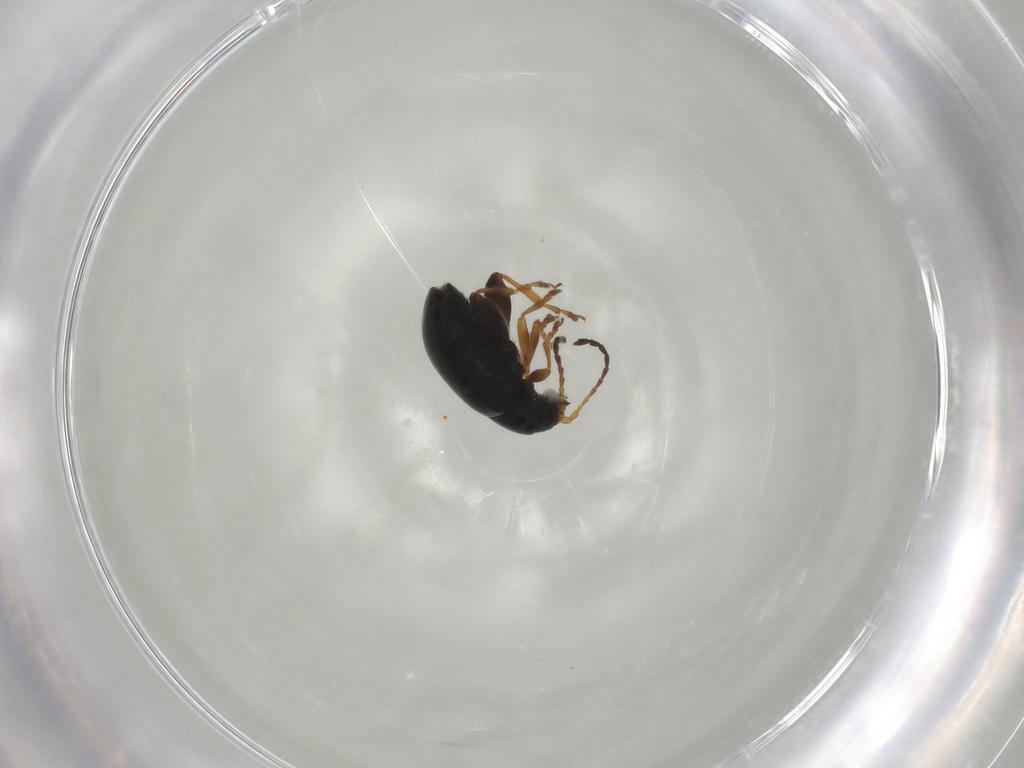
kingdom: Animalia
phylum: Arthropoda
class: Insecta
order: Coleoptera
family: Chrysomelidae
